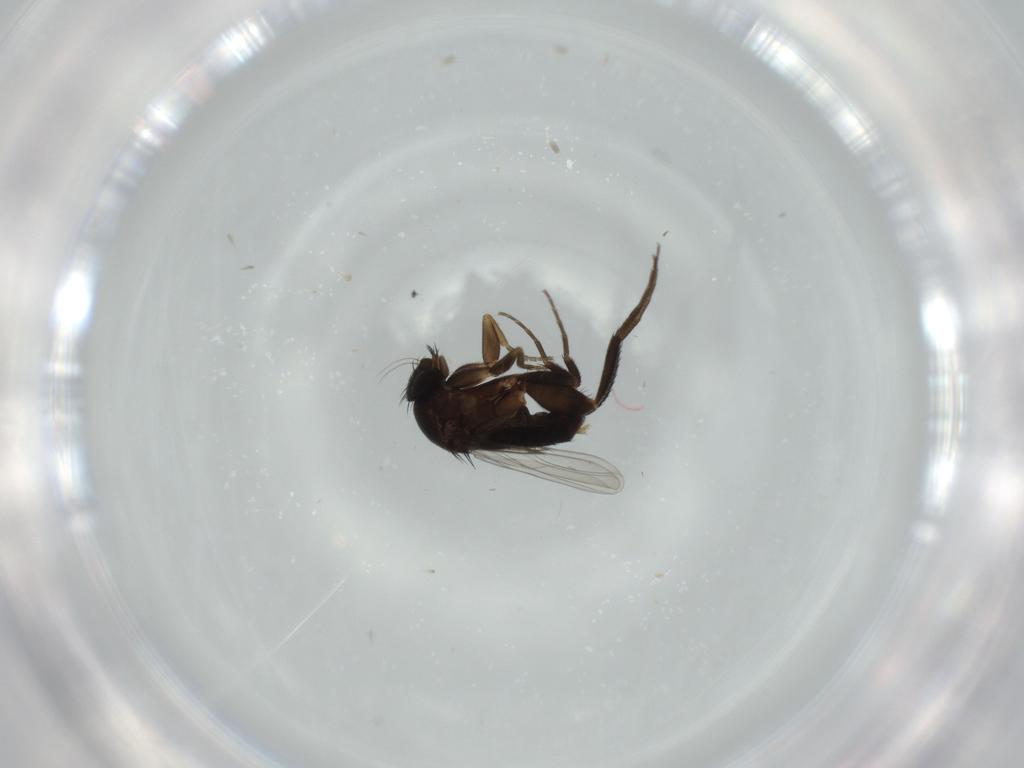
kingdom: Animalia
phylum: Arthropoda
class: Insecta
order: Diptera
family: Phoridae
